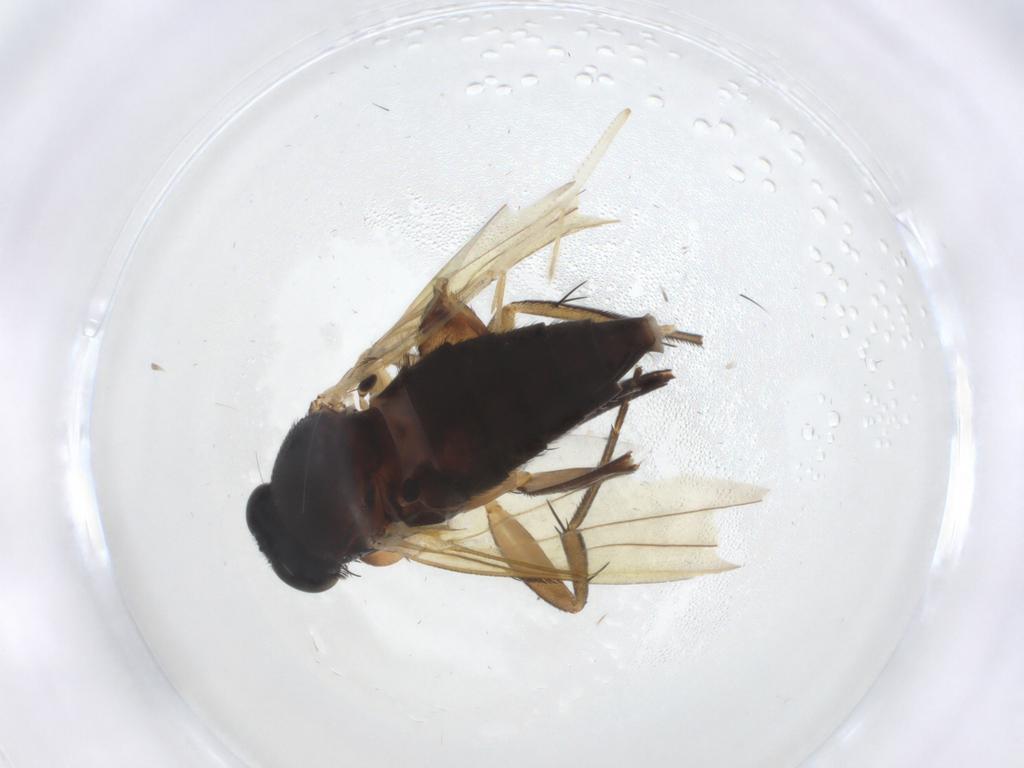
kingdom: Animalia
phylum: Arthropoda
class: Insecta
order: Diptera
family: Phoridae
